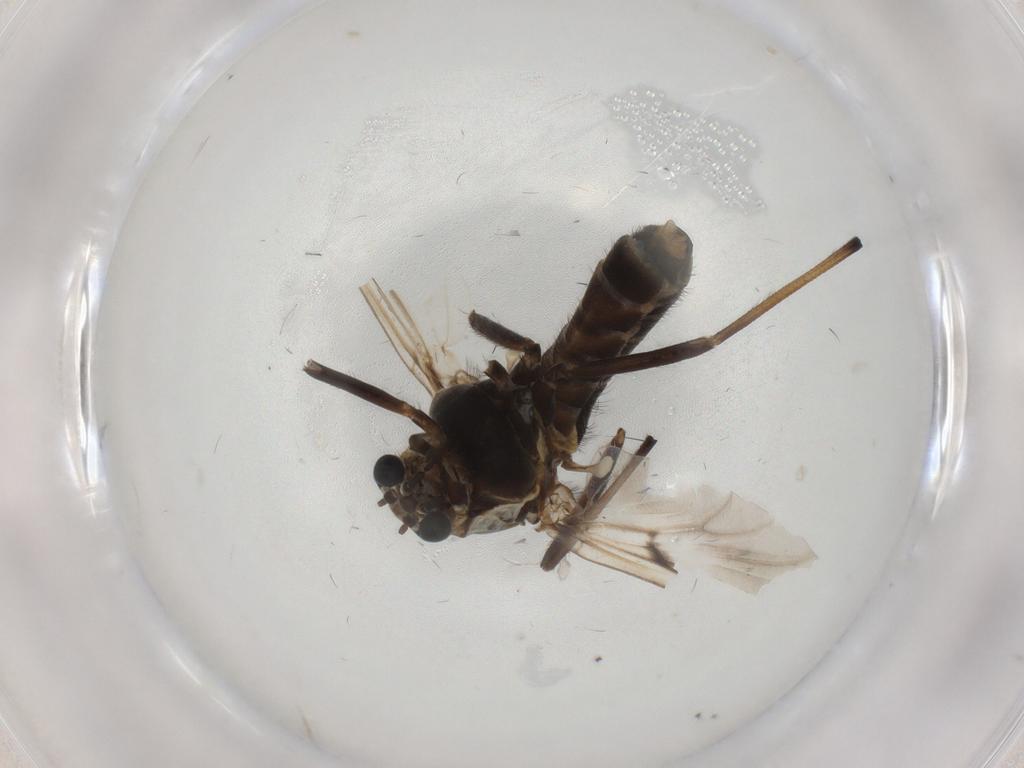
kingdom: Animalia
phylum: Arthropoda
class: Insecta
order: Diptera
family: Chironomidae
